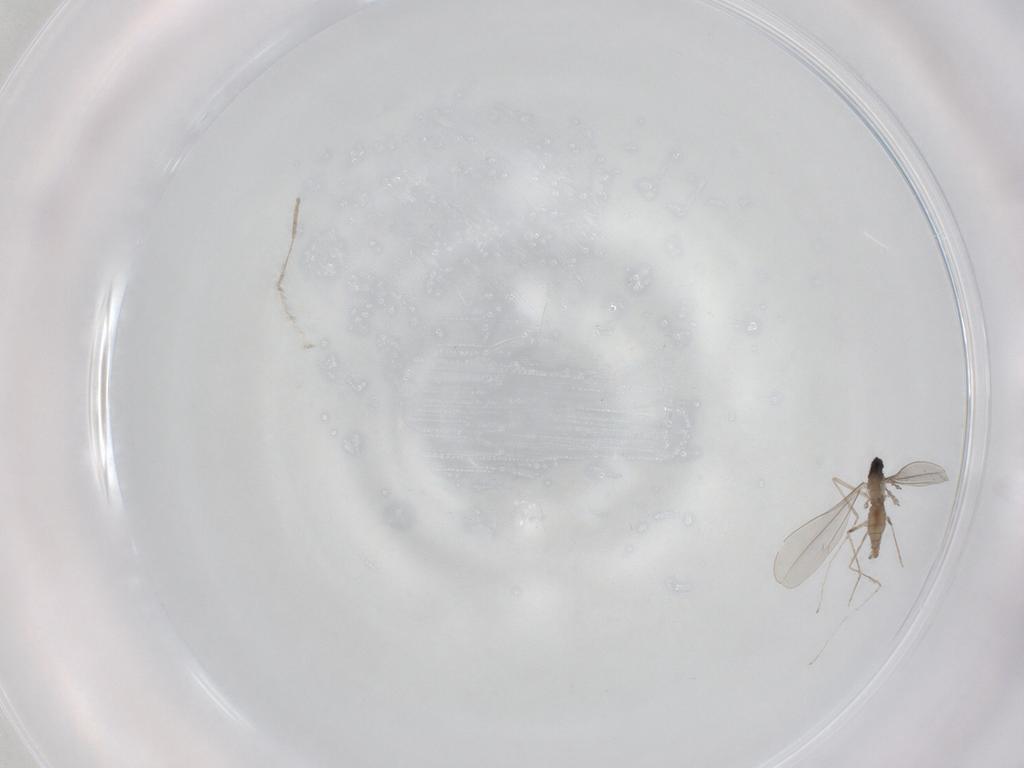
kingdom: Animalia
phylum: Arthropoda
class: Insecta
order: Diptera
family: Cecidomyiidae
